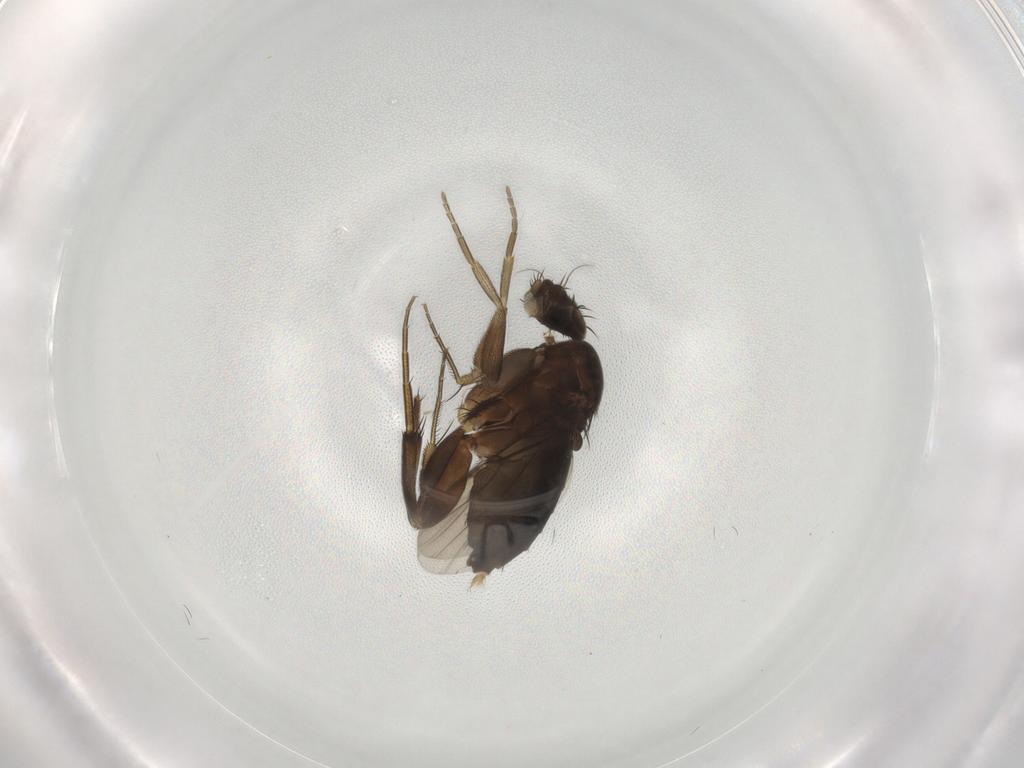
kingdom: Animalia
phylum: Arthropoda
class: Insecta
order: Diptera
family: Phoridae
